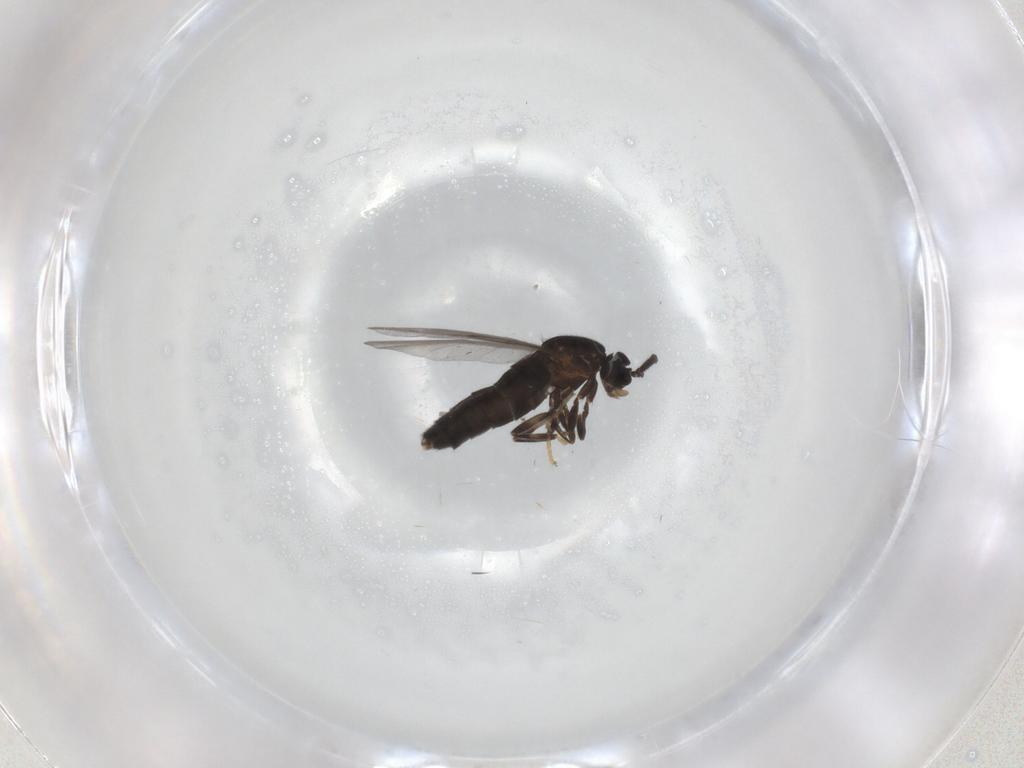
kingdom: Animalia
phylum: Arthropoda
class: Insecta
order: Diptera
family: Scatopsidae
